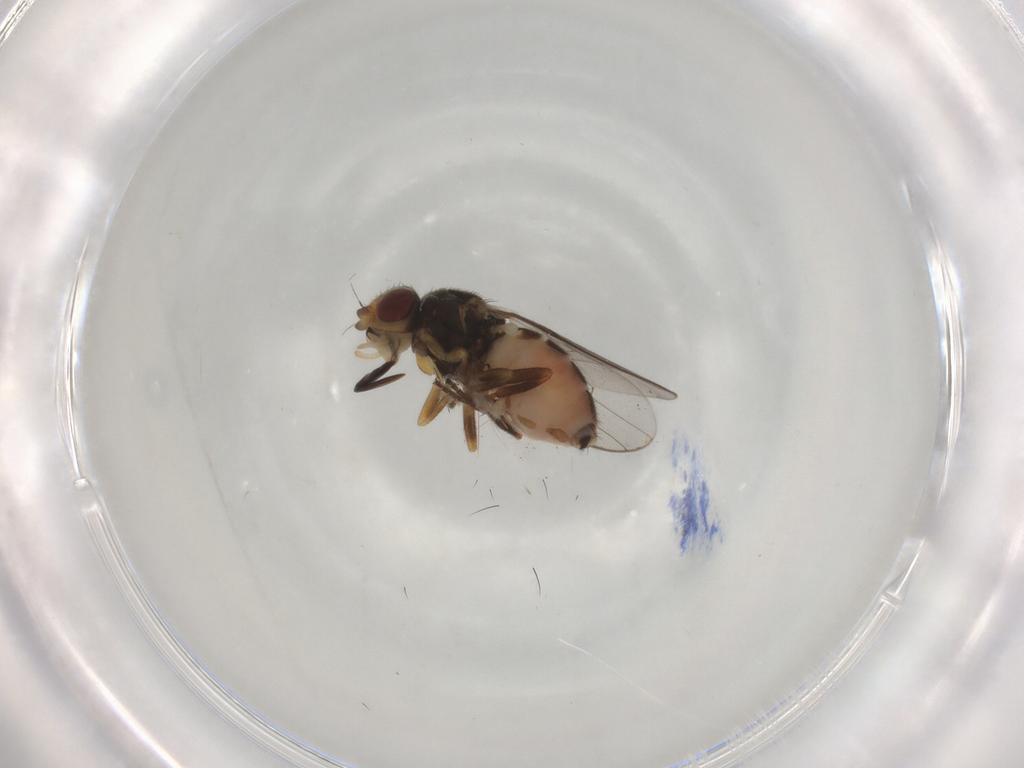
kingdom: Animalia
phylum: Arthropoda
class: Insecta
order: Diptera
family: Chloropidae
